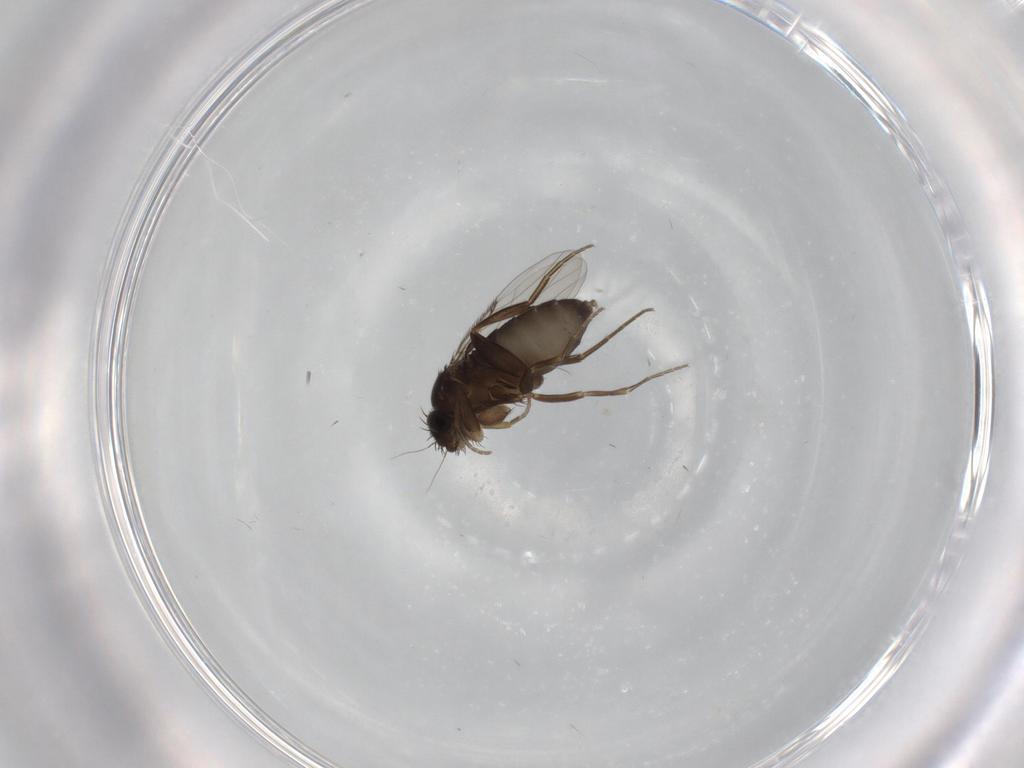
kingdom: Animalia
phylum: Arthropoda
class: Insecta
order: Diptera
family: Phoridae
